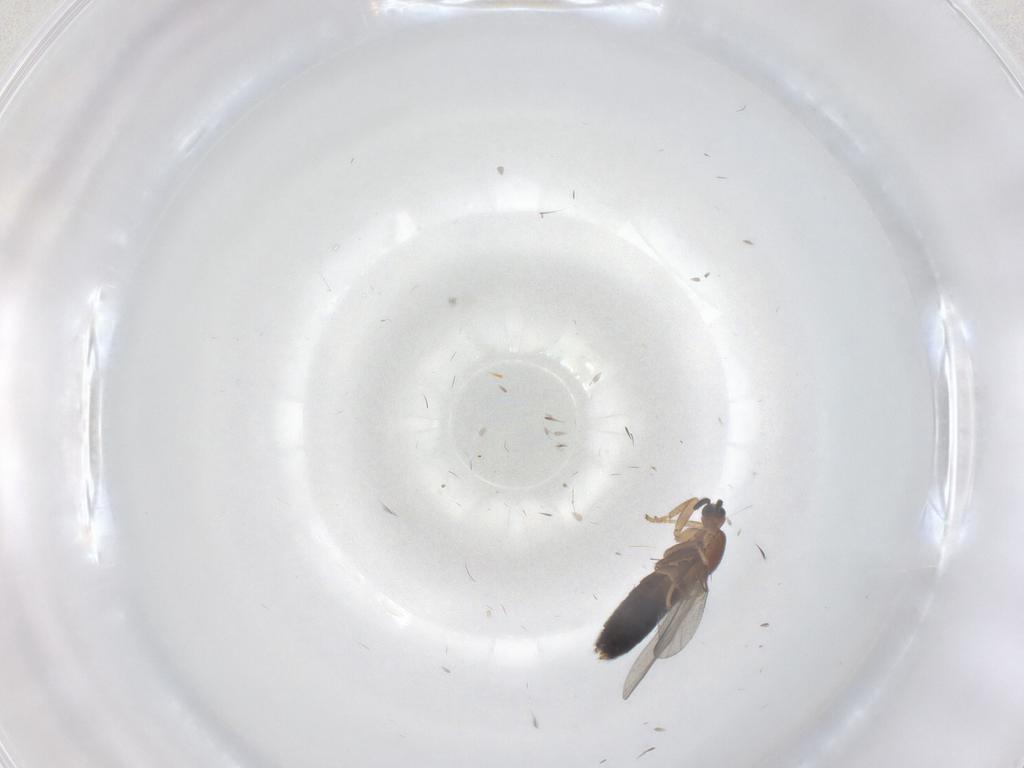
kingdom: Animalia
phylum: Arthropoda
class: Insecta
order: Diptera
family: Scatopsidae
